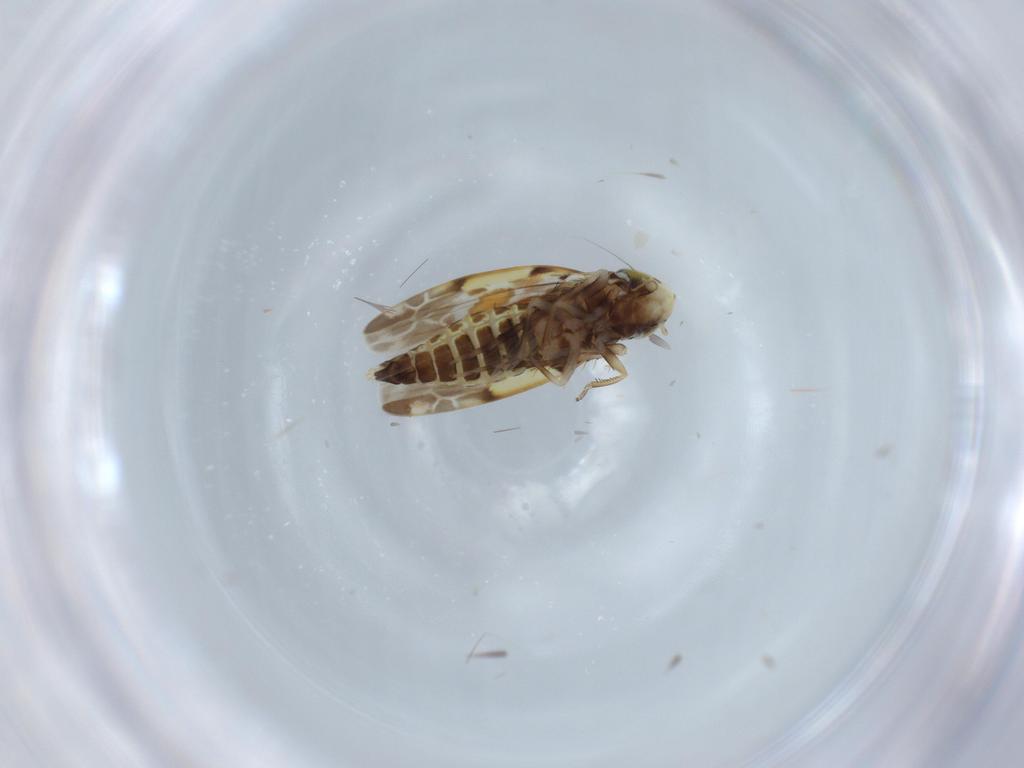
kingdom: Animalia
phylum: Arthropoda
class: Insecta
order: Hemiptera
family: Cicadellidae
